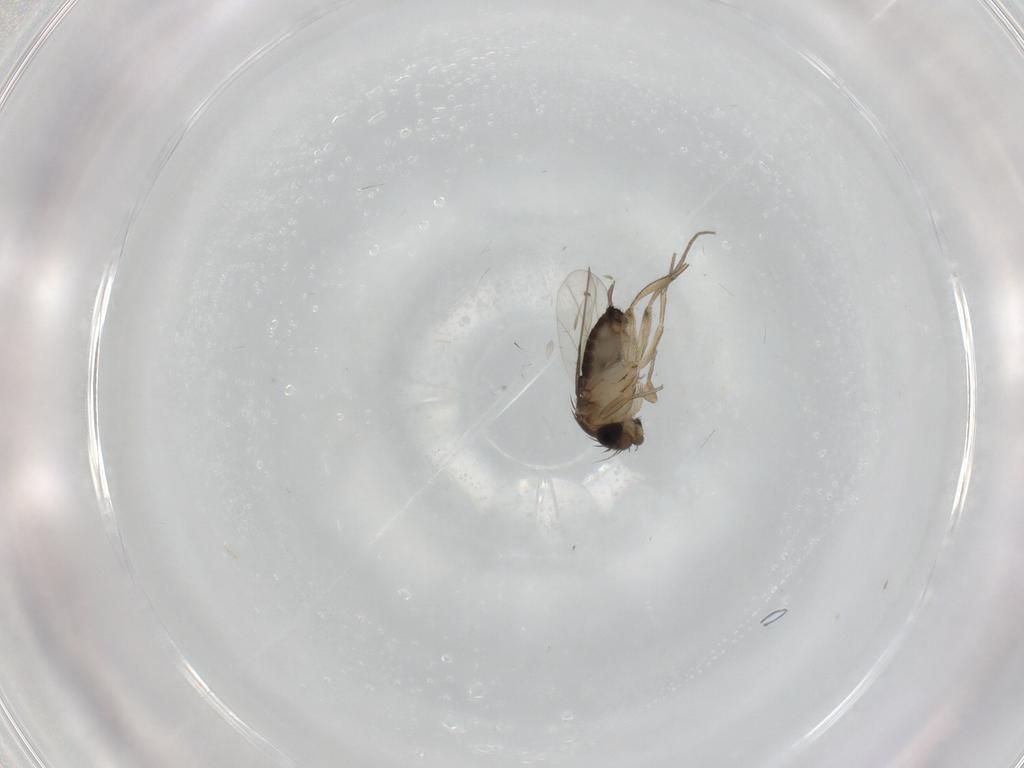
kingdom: Animalia
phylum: Arthropoda
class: Insecta
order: Diptera
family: Phoridae
